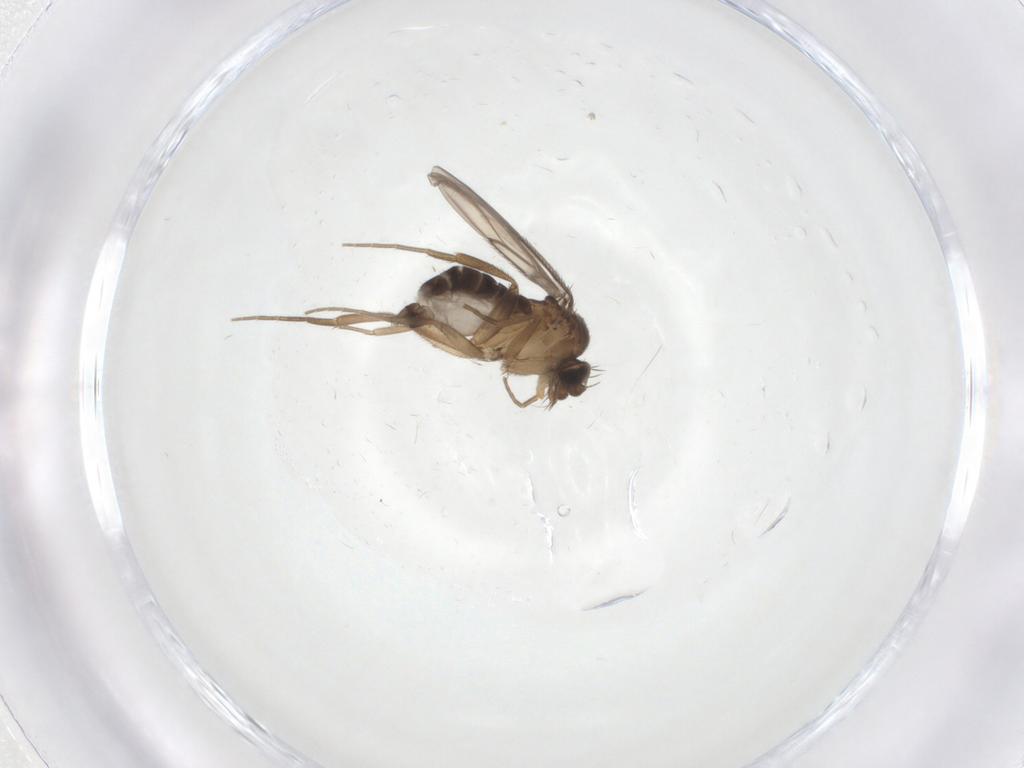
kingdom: Animalia
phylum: Arthropoda
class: Insecta
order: Diptera
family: Phoridae
